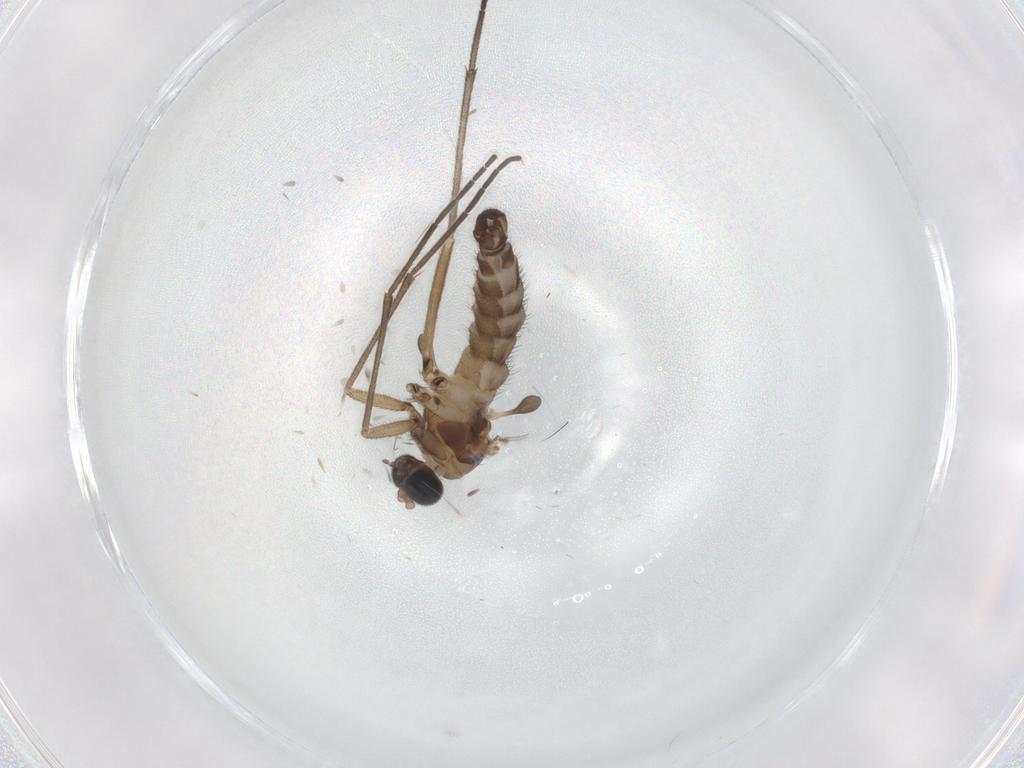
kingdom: Animalia
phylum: Arthropoda
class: Insecta
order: Diptera
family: Sciaridae
